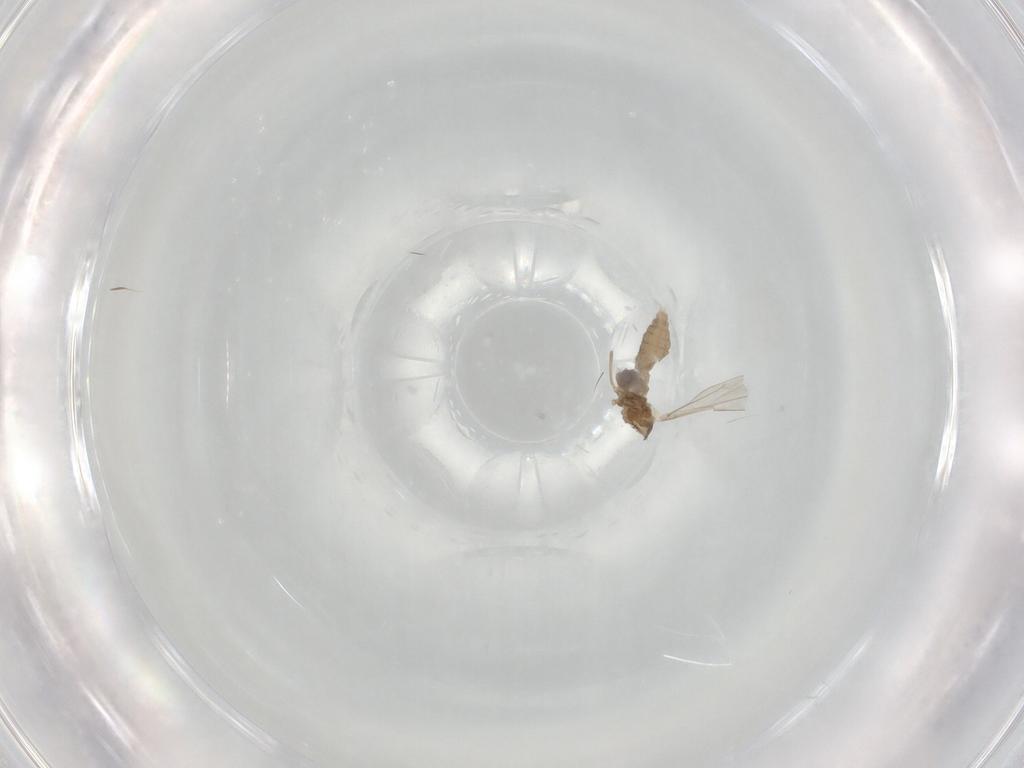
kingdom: Animalia
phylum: Arthropoda
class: Insecta
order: Diptera
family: Cecidomyiidae
